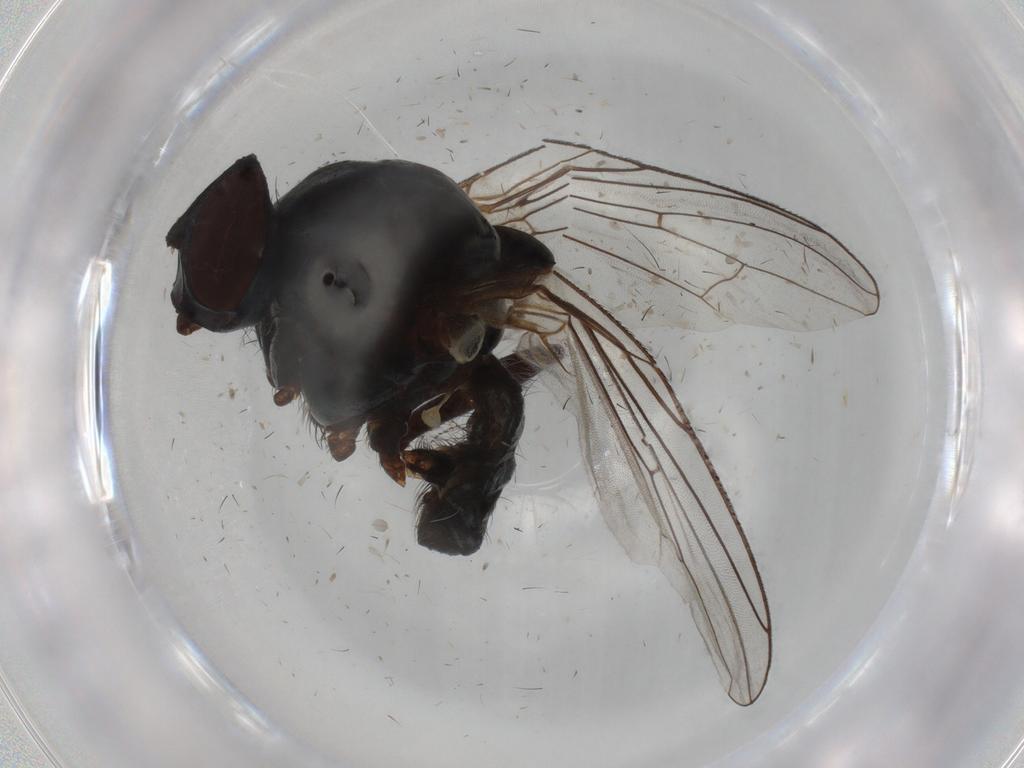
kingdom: Animalia
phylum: Arthropoda
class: Insecta
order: Diptera
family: Anthomyiidae
